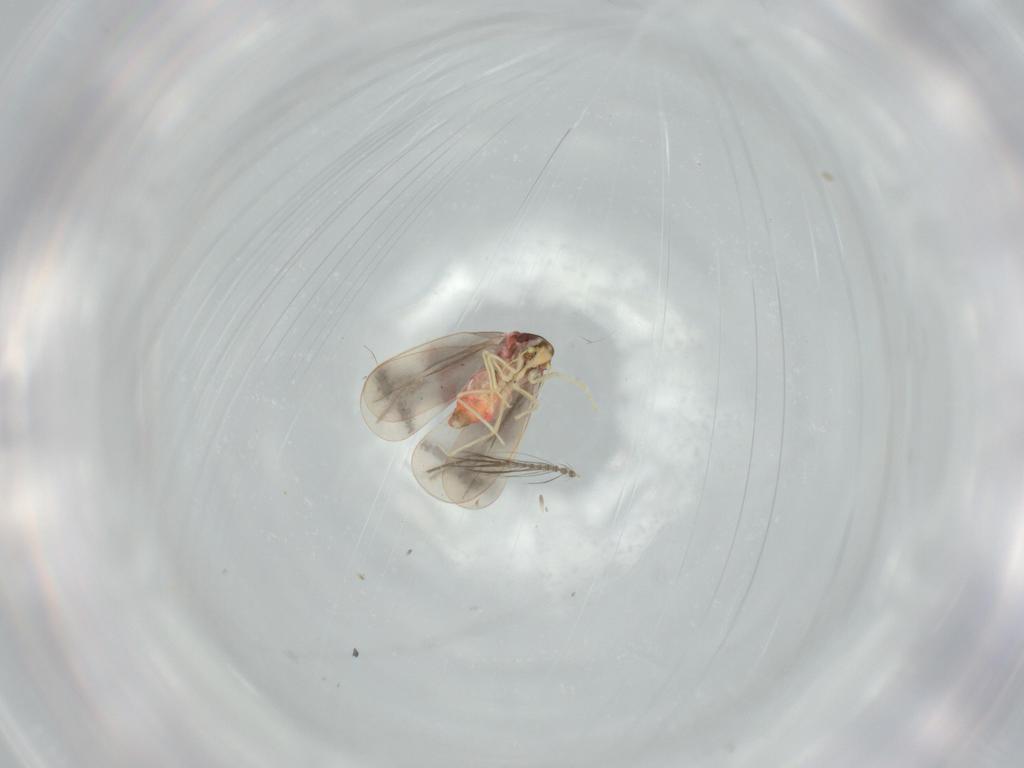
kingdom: Animalia
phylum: Arthropoda
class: Insecta
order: Hemiptera
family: Aleyrodidae
